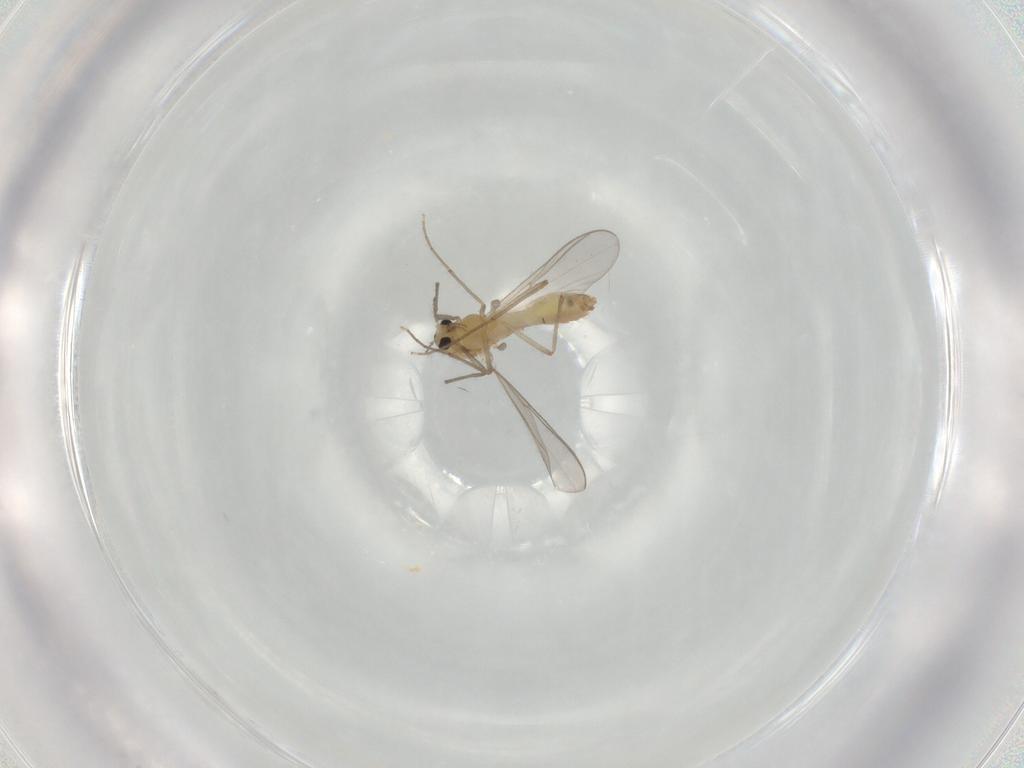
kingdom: Animalia
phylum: Arthropoda
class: Insecta
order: Diptera
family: Chironomidae
